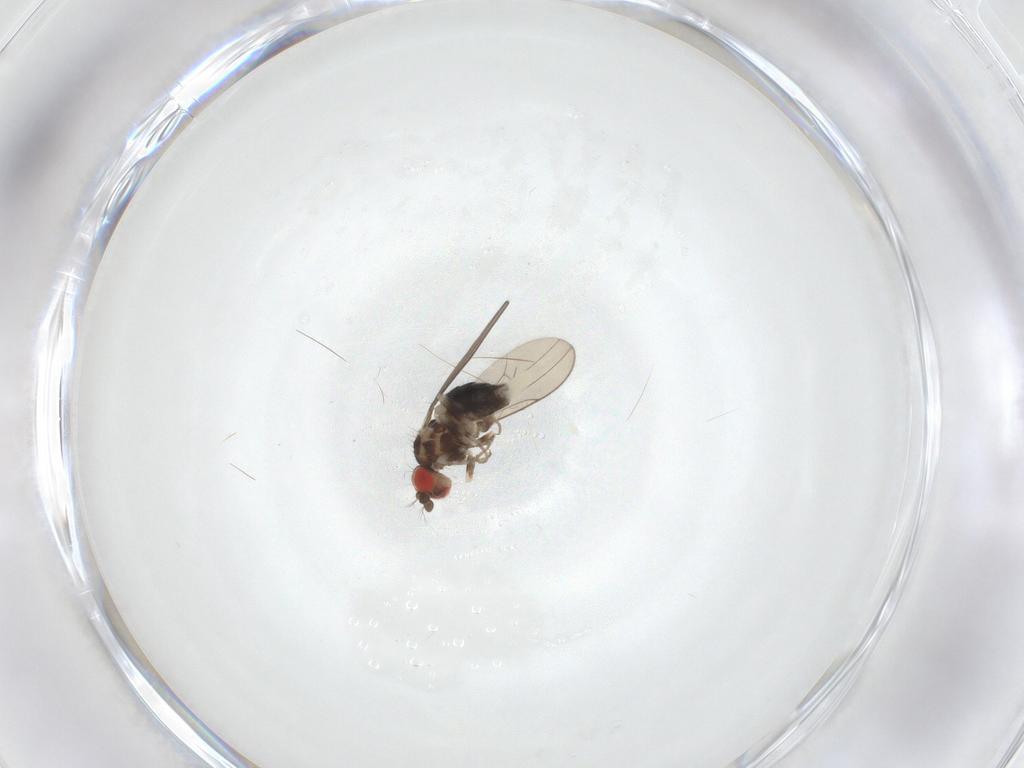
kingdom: Animalia
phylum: Arthropoda
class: Insecta
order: Diptera
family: Drosophilidae
